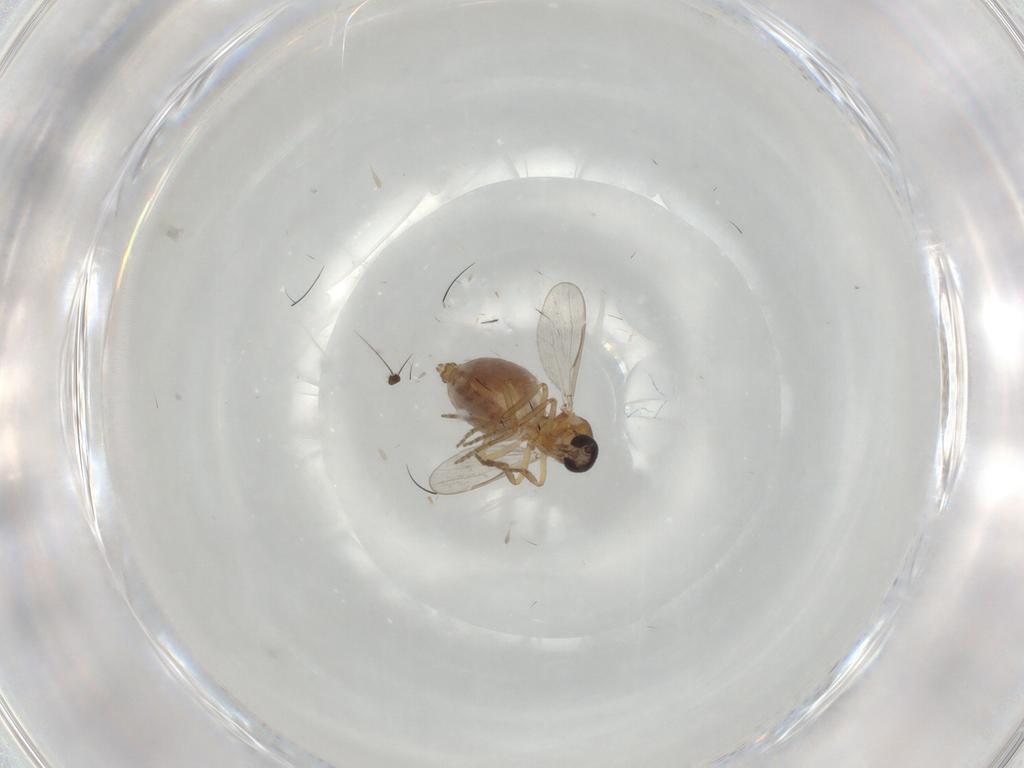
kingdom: Animalia
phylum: Arthropoda
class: Insecta
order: Diptera
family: Ceratopogonidae
